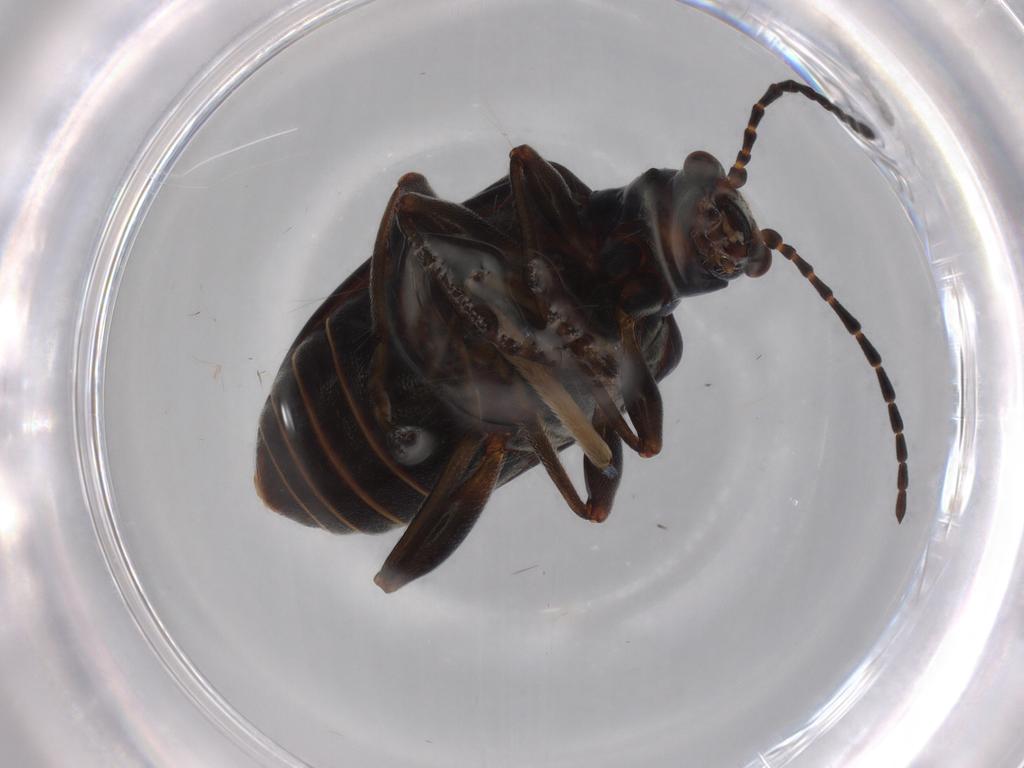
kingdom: Animalia
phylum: Arthropoda
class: Insecta
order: Coleoptera
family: Chrysomelidae
